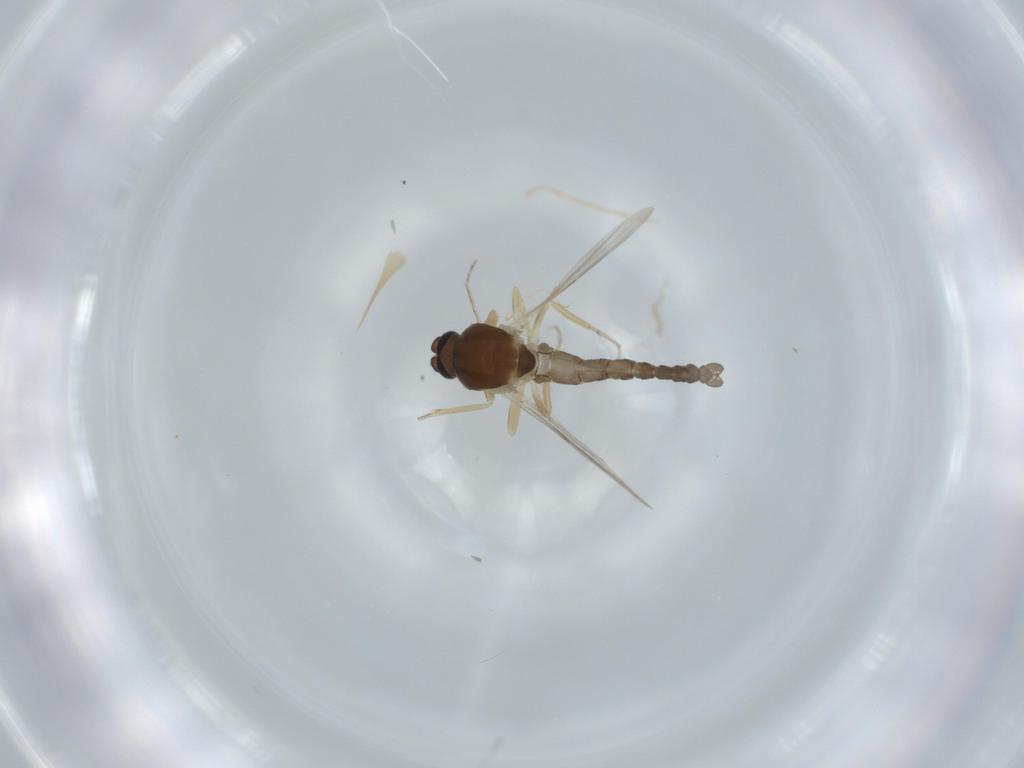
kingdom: Animalia
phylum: Arthropoda
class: Insecta
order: Diptera
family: Ceratopogonidae
